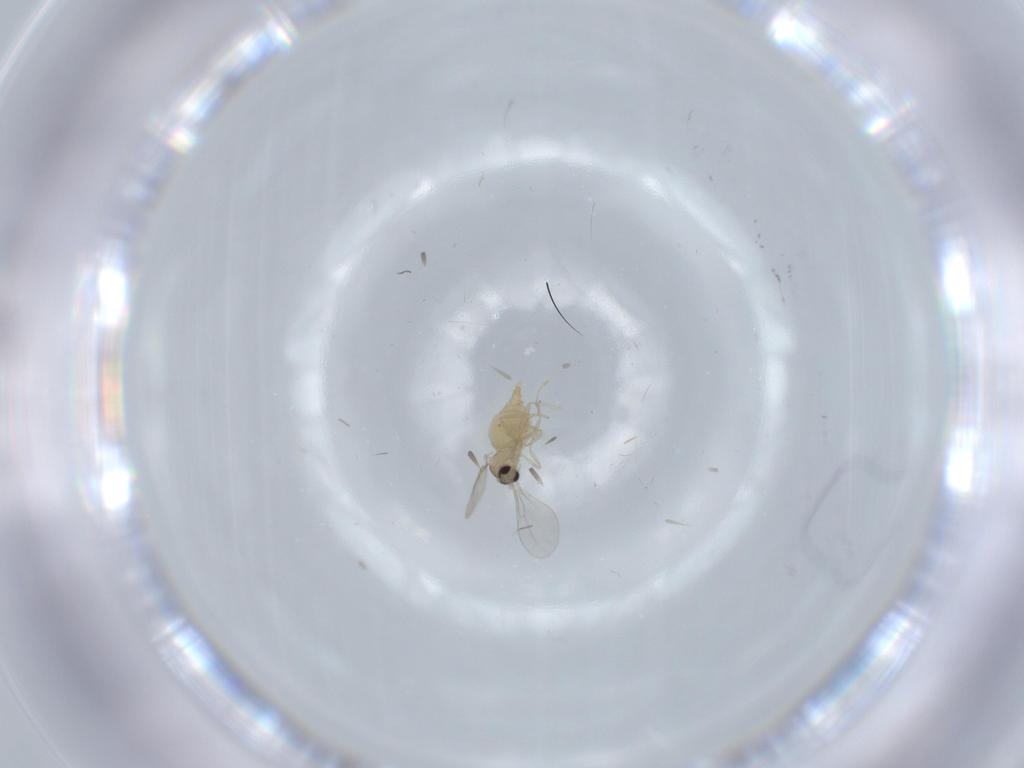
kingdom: Animalia
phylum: Arthropoda
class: Insecta
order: Diptera
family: Cecidomyiidae
